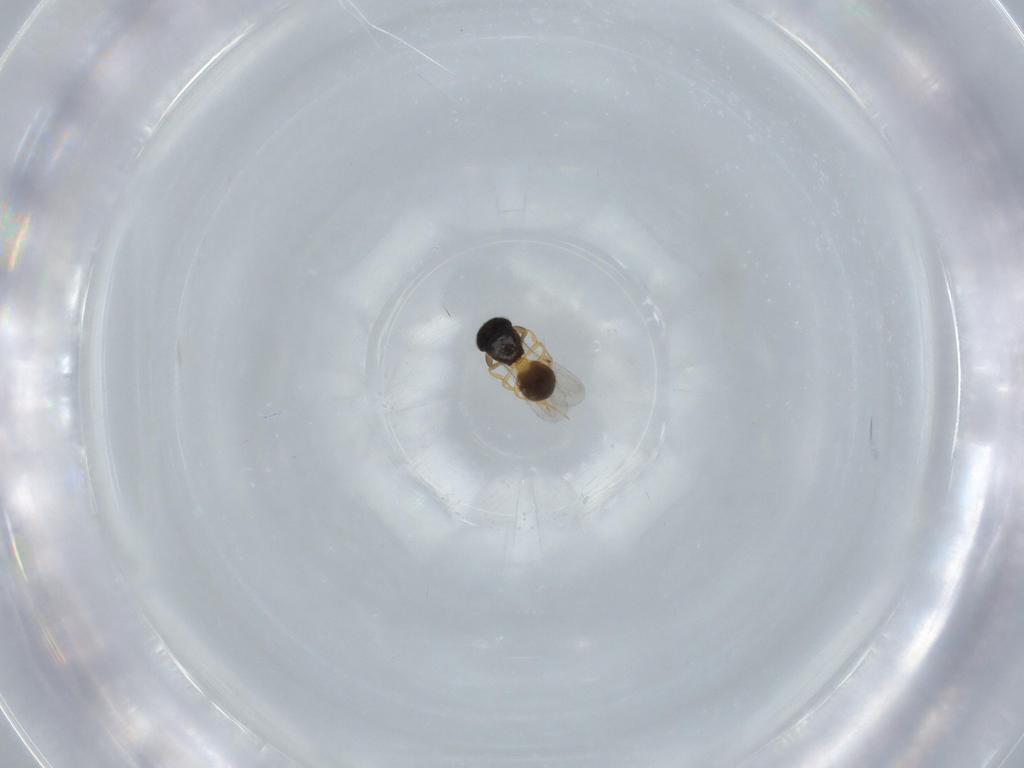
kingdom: Animalia
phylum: Arthropoda
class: Insecta
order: Hymenoptera
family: Scelionidae
